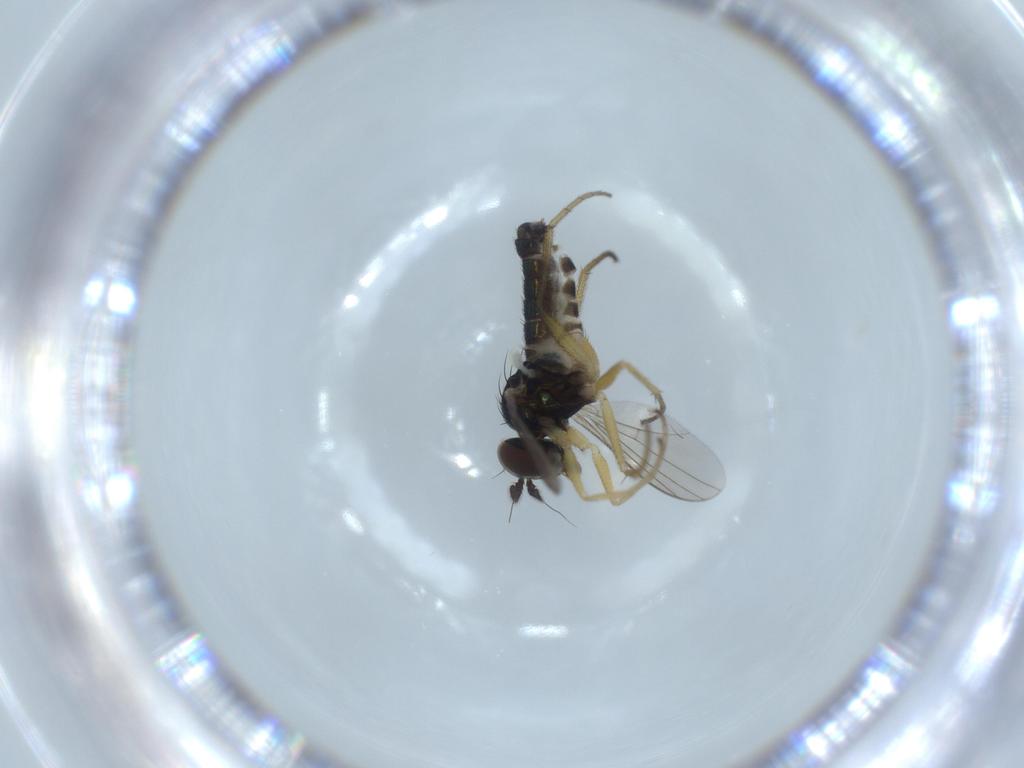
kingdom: Animalia
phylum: Arthropoda
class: Insecta
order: Diptera
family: Dolichopodidae
